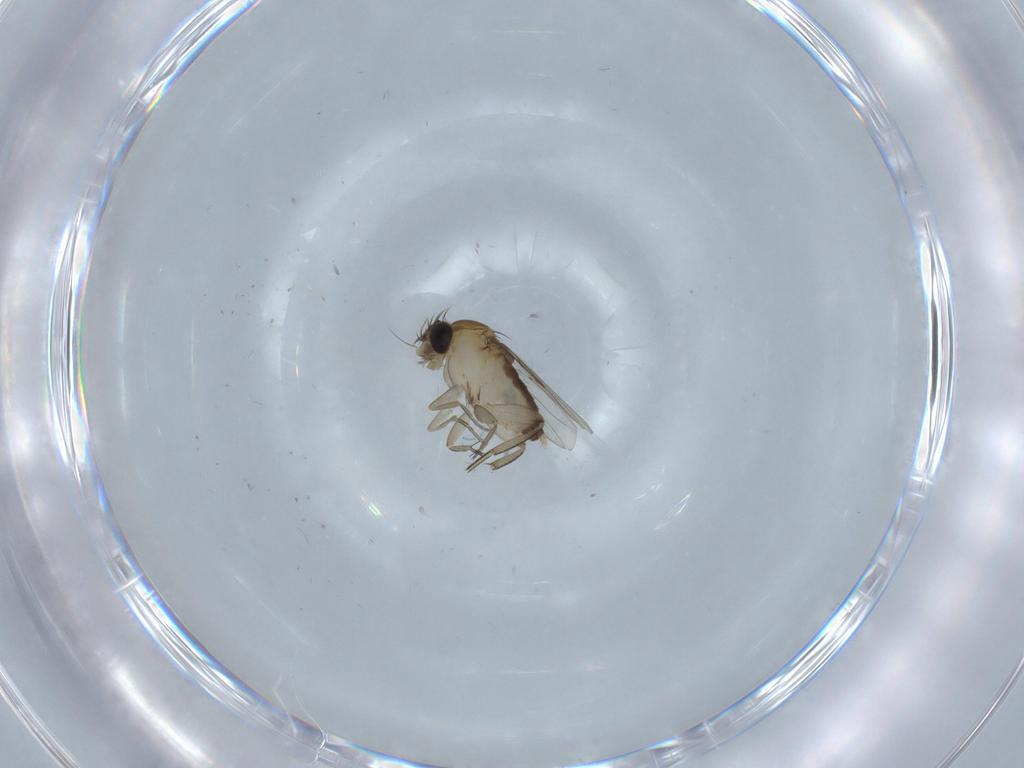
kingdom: Animalia
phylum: Arthropoda
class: Insecta
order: Diptera
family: Phoridae
